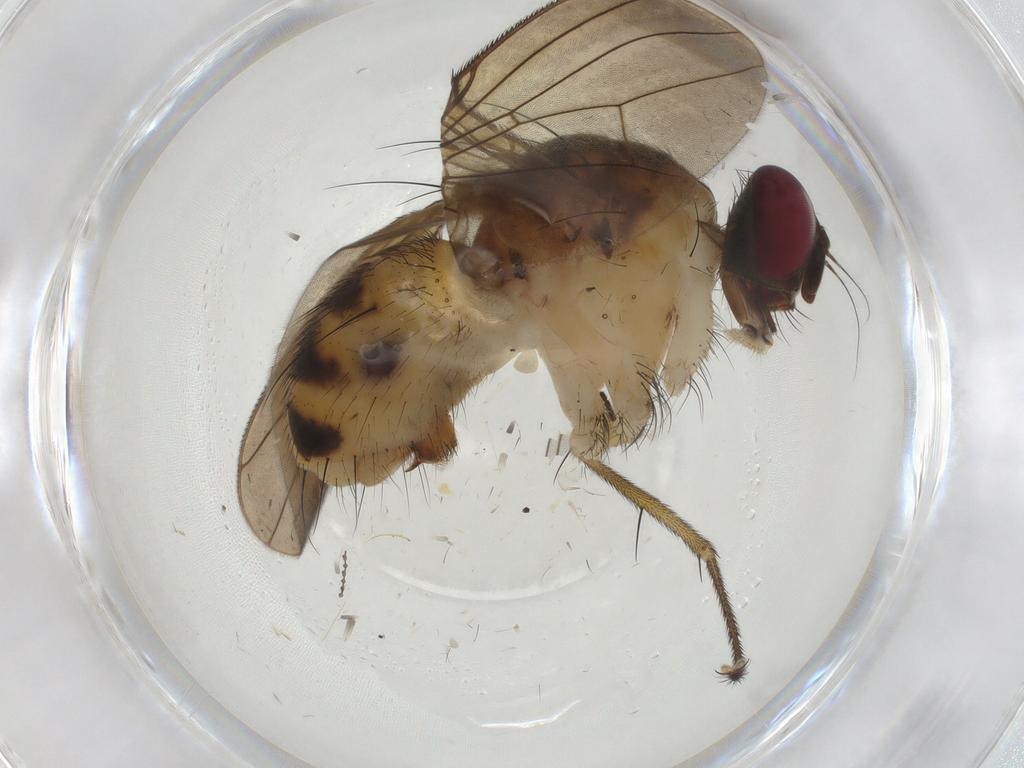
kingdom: Animalia
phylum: Arthropoda
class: Insecta
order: Diptera
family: Muscidae
